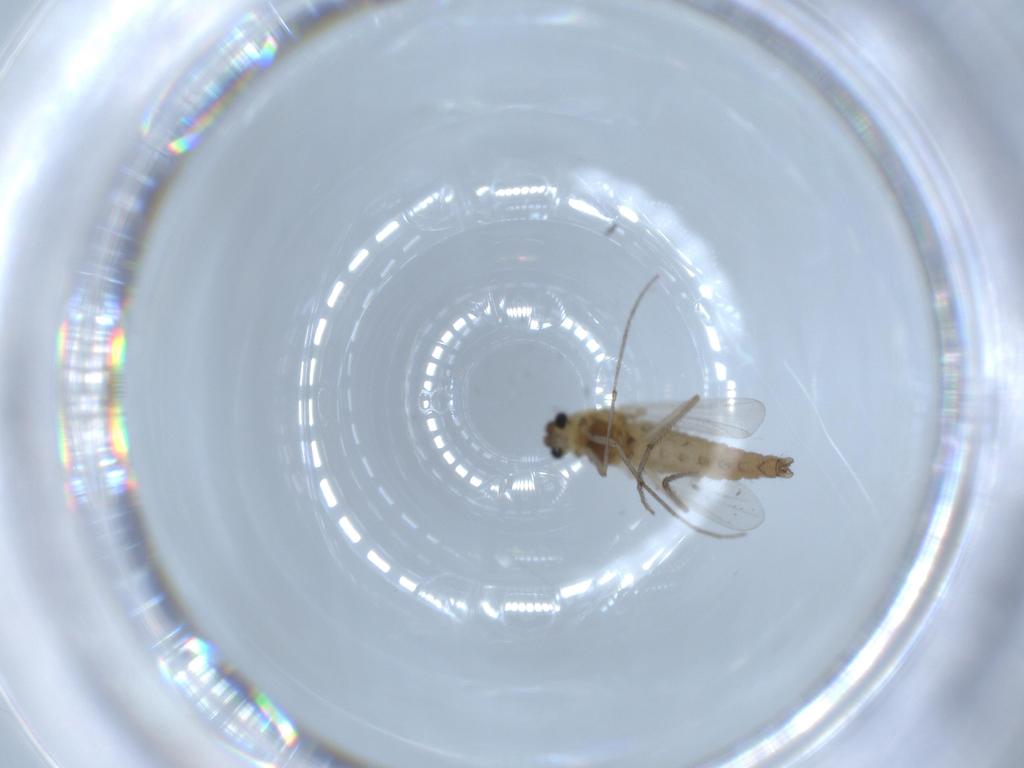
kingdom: Animalia
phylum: Arthropoda
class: Insecta
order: Diptera
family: Chironomidae
